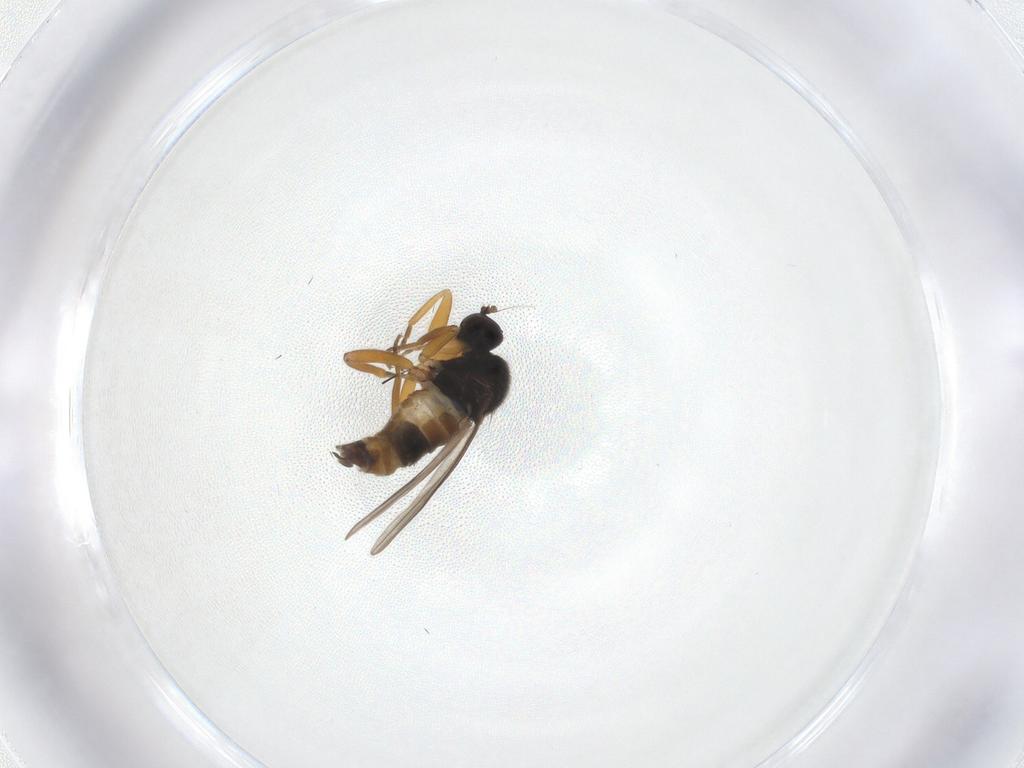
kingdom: Animalia
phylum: Arthropoda
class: Insecta
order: Diptera
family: Hybotidae
